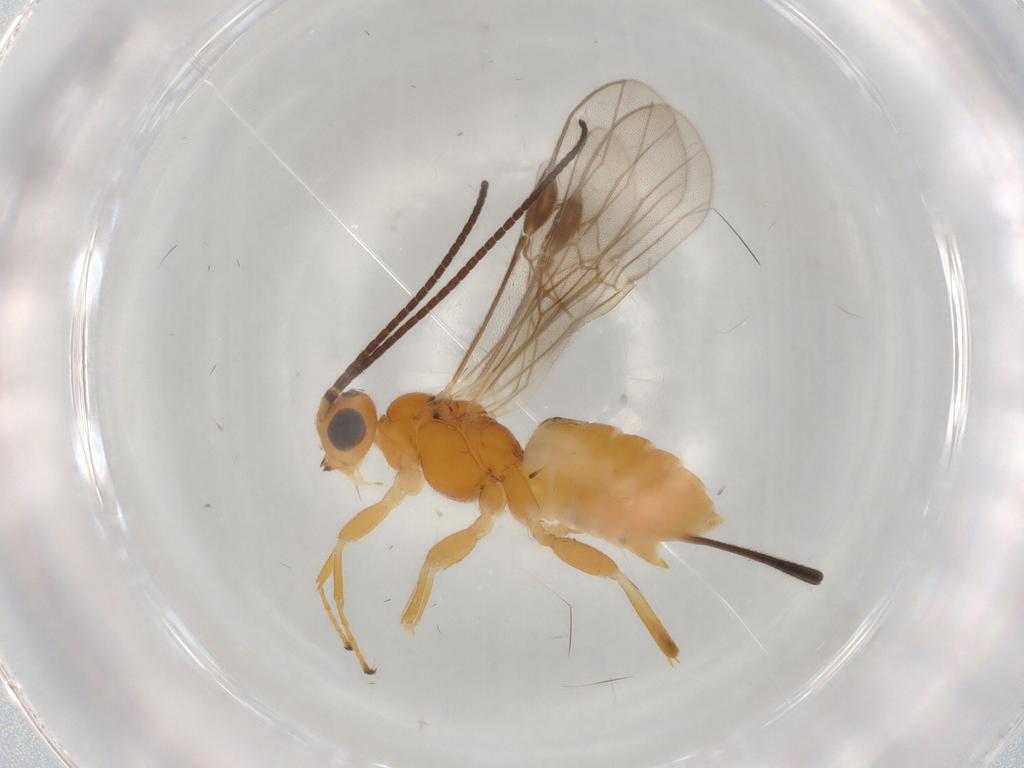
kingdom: Animalia
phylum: Arthropoda
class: Insecta
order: Hymenoptera
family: Braconidae
